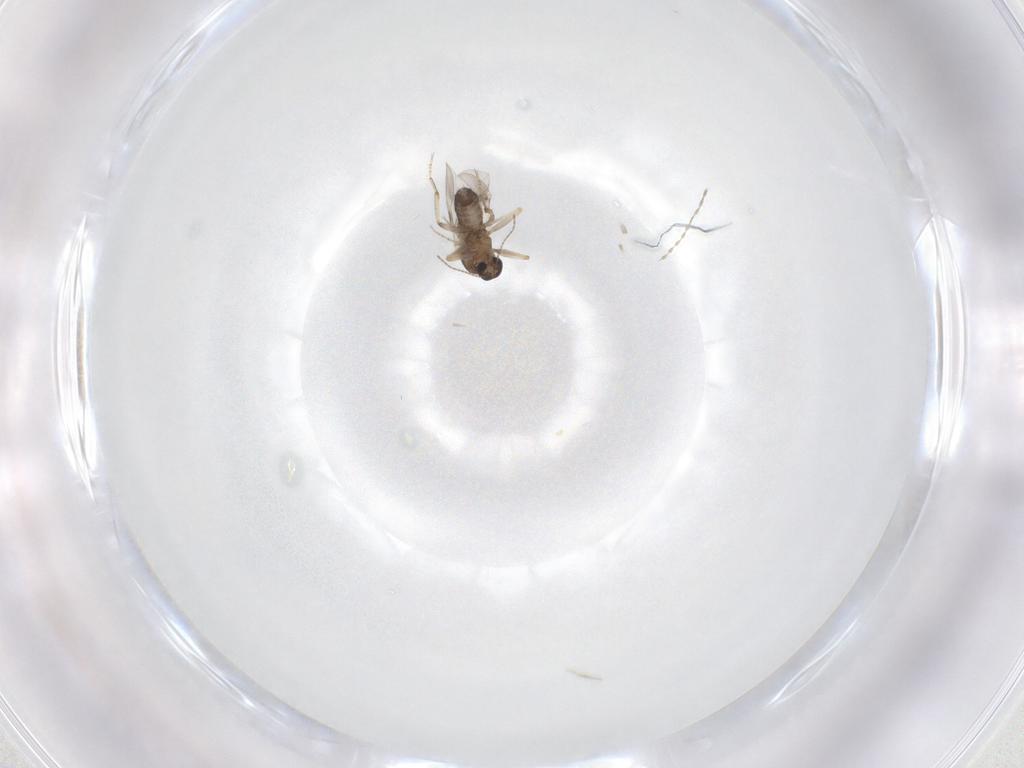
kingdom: Animalia
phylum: Arthropoda
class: Insecta
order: Diptera
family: Ceratopogonidae
